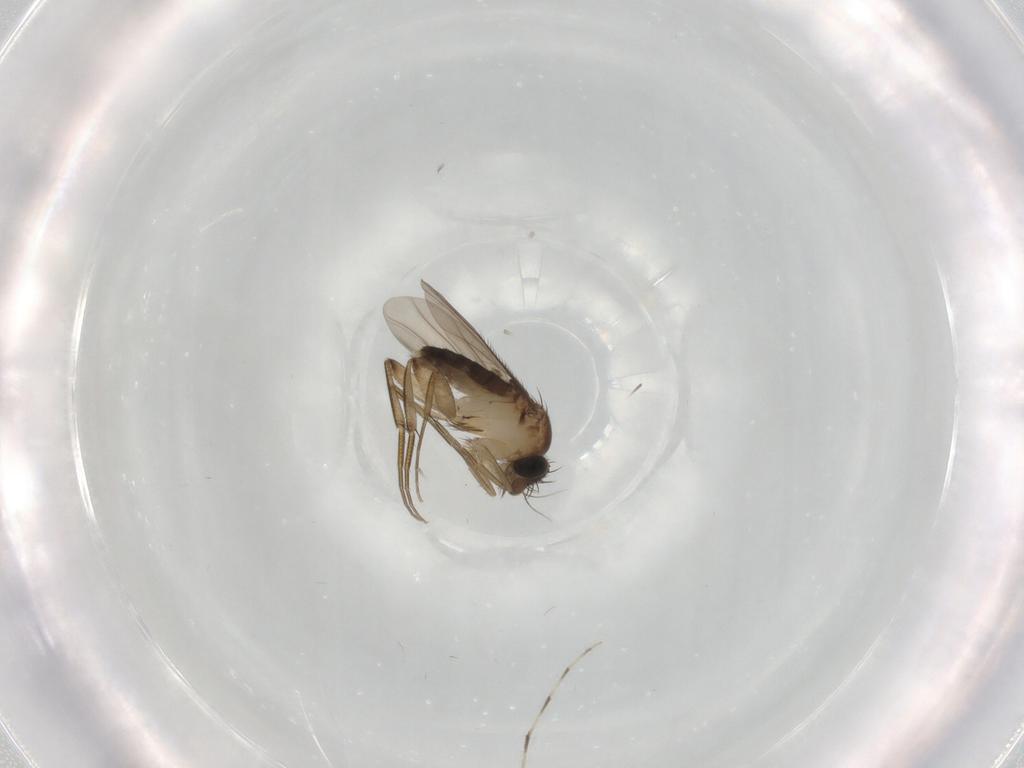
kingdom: Animalia
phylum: Arthropoda
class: Insecta
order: Diptera
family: Phoridae
